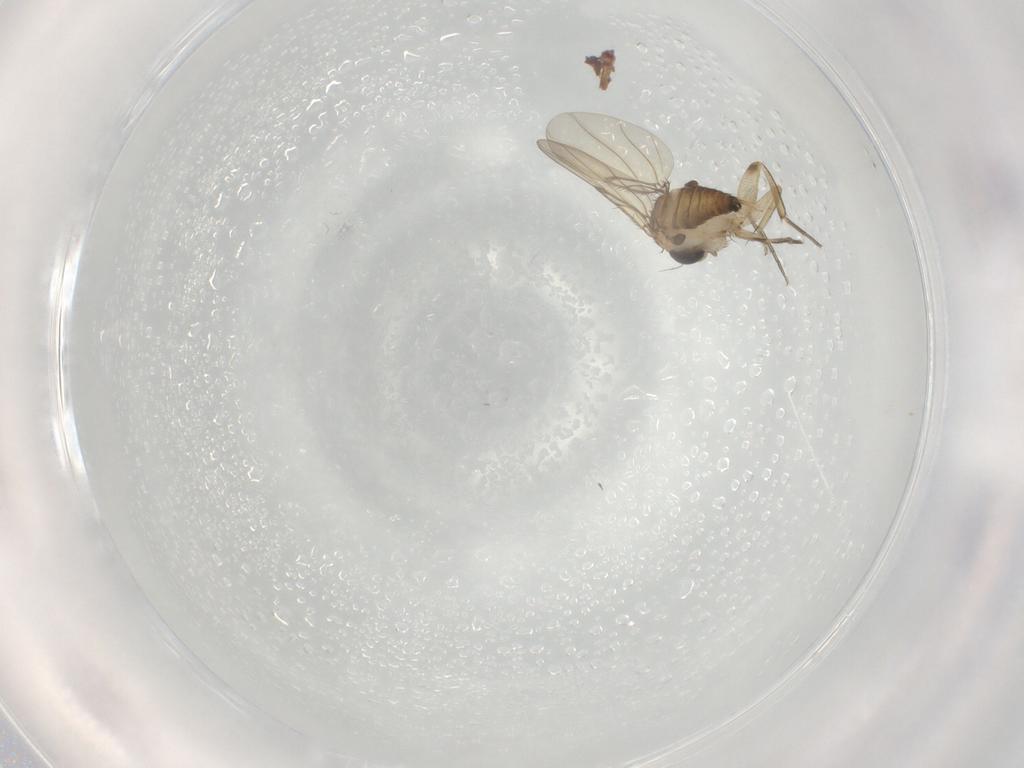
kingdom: Animalia
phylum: Arthropoda
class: Insecta
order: Diptera
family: Phoridae
